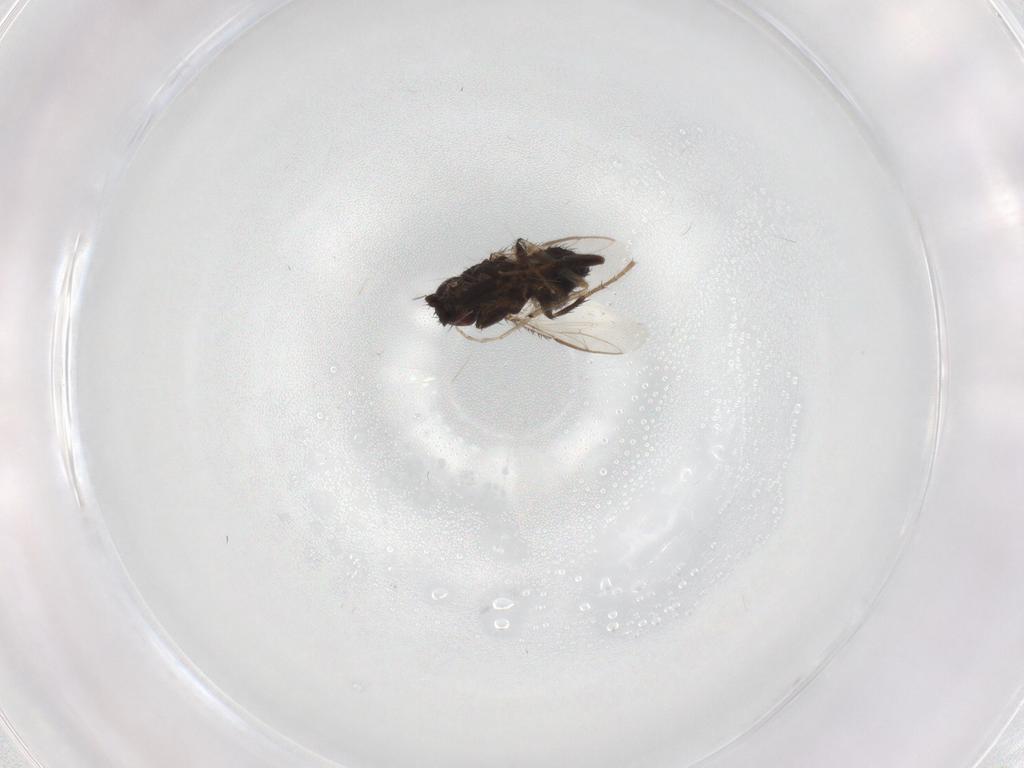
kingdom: Animalia
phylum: Arthropoda
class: Insecta
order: Diptera
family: Sphaeroceridae
